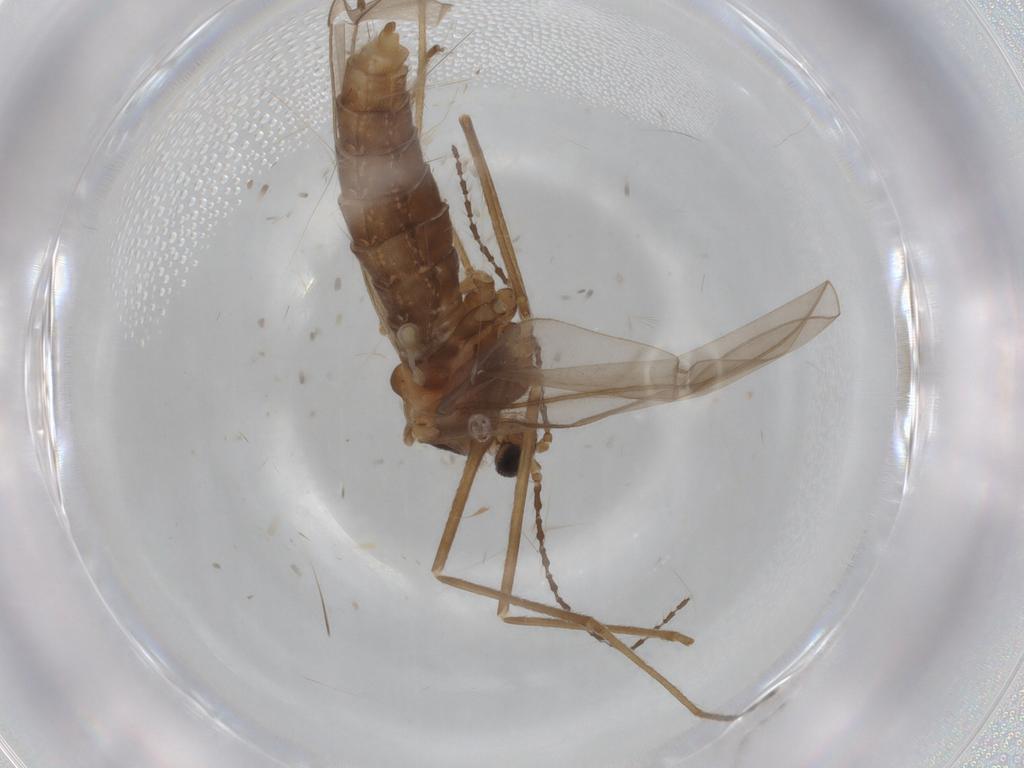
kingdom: Animalia
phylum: Arthropoda
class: Insecta
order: Diptera
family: Cecidomyiidae
